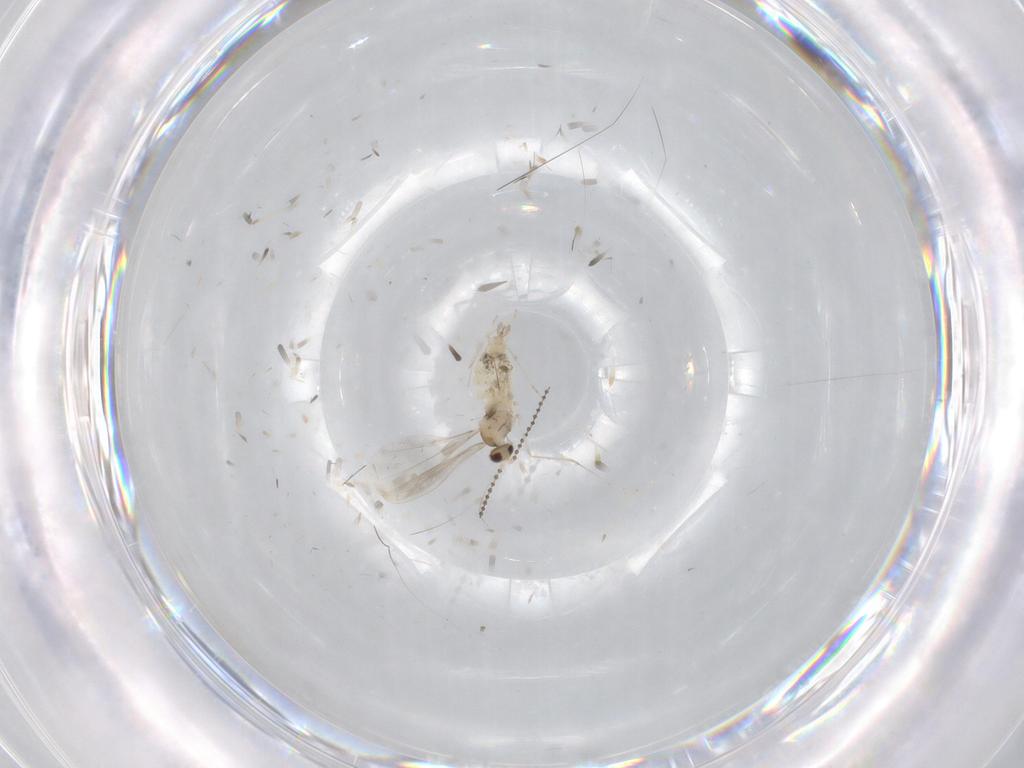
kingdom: Animalia
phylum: Arthropoda
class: Insecta
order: Diptera
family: Cecidomyiidae
